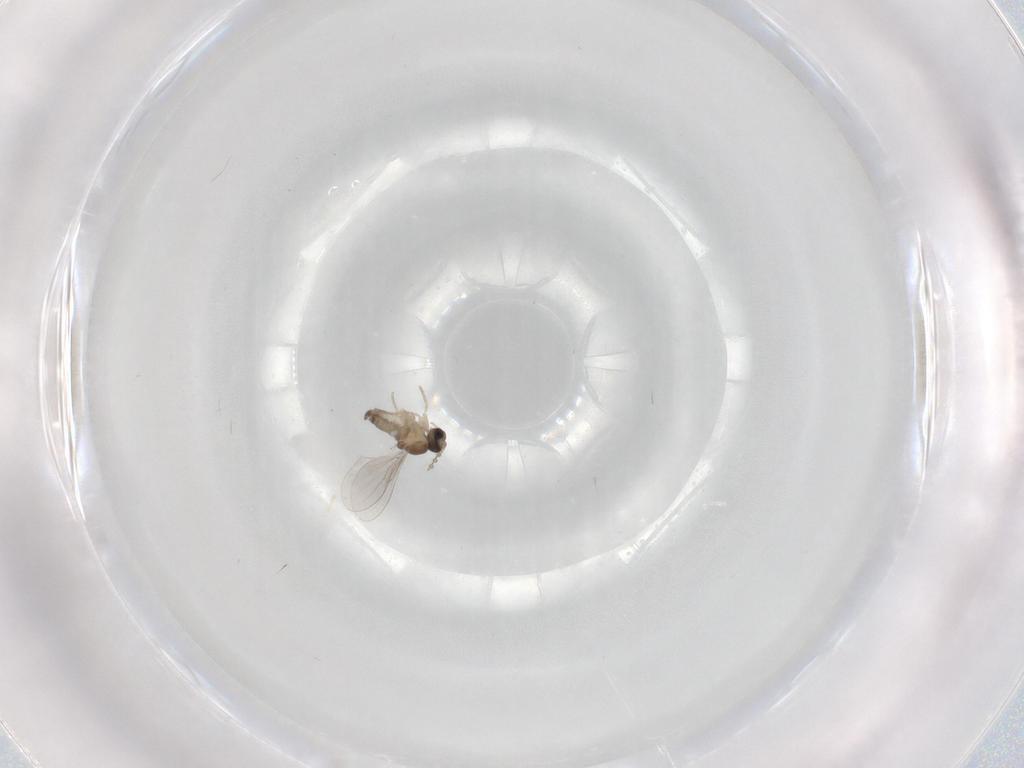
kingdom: Animalia
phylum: Arthropoda
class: Insecta
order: Diptera
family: Cecidomyiidae
